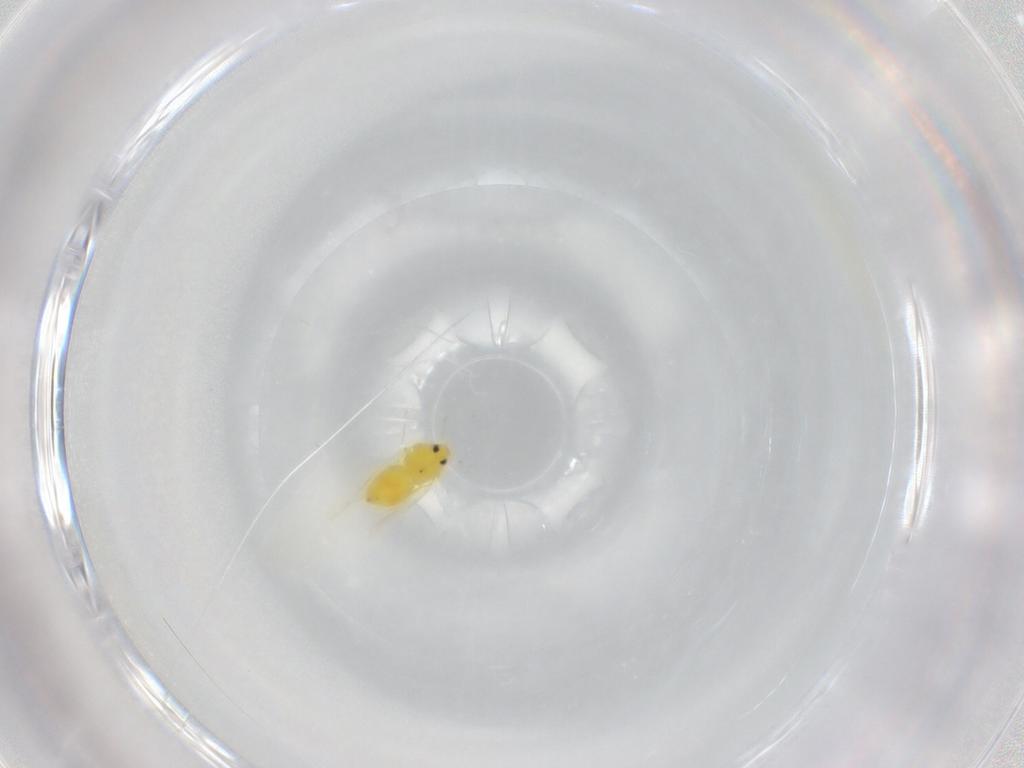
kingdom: Animalia
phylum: Arthropoda
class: Insecta
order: Hemiptera
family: Aleyrodidae
